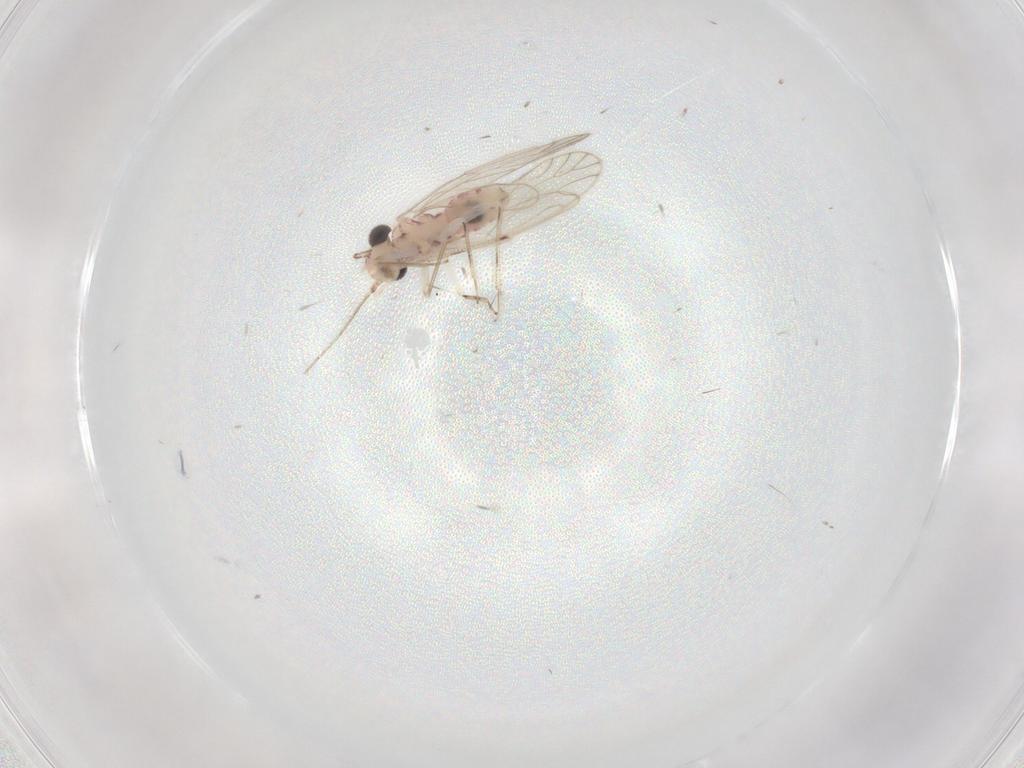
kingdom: Animalia
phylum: Arthropoda
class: Insecta
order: Psocodea
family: Caeciliusidae
